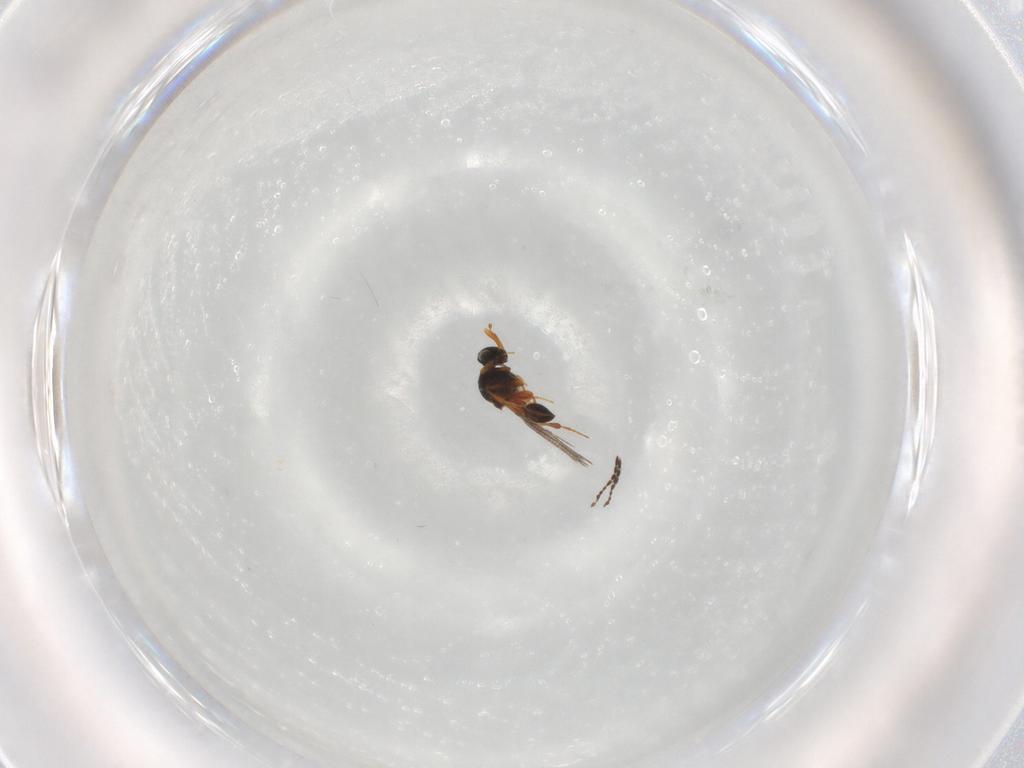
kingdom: Animalia
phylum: Arthropoda
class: Insecta
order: Hymenoptera
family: Platygastridae
